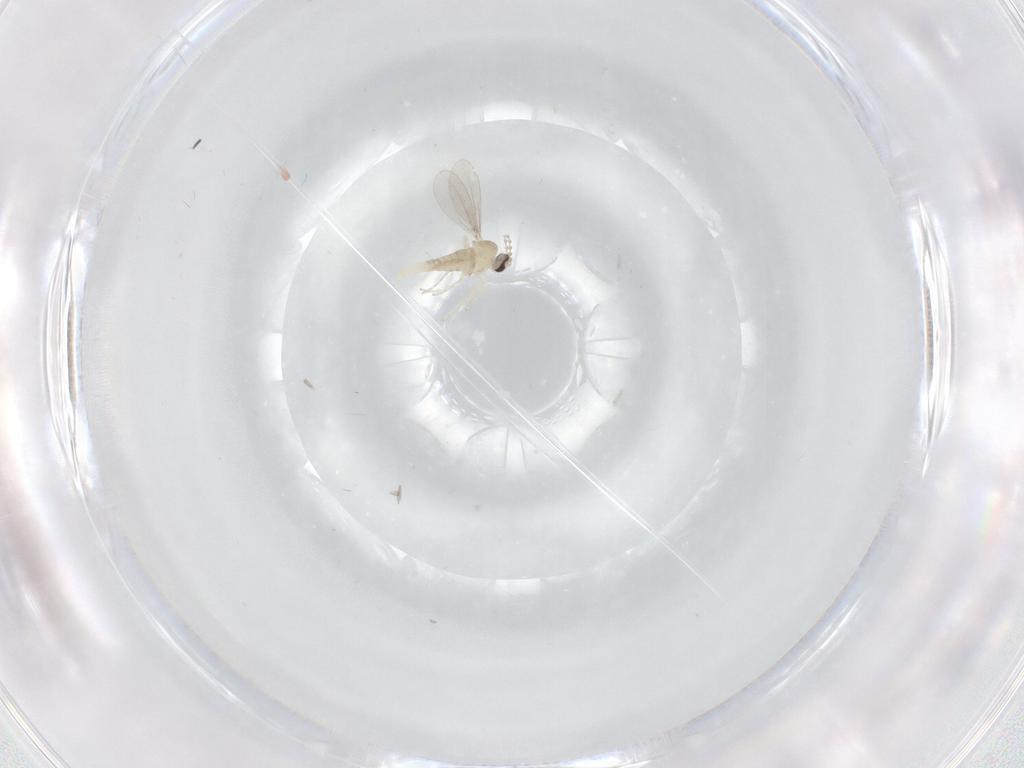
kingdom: Animalia
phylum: Arthropoda
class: Insecta
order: Diptera
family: Cecidomyiidae
